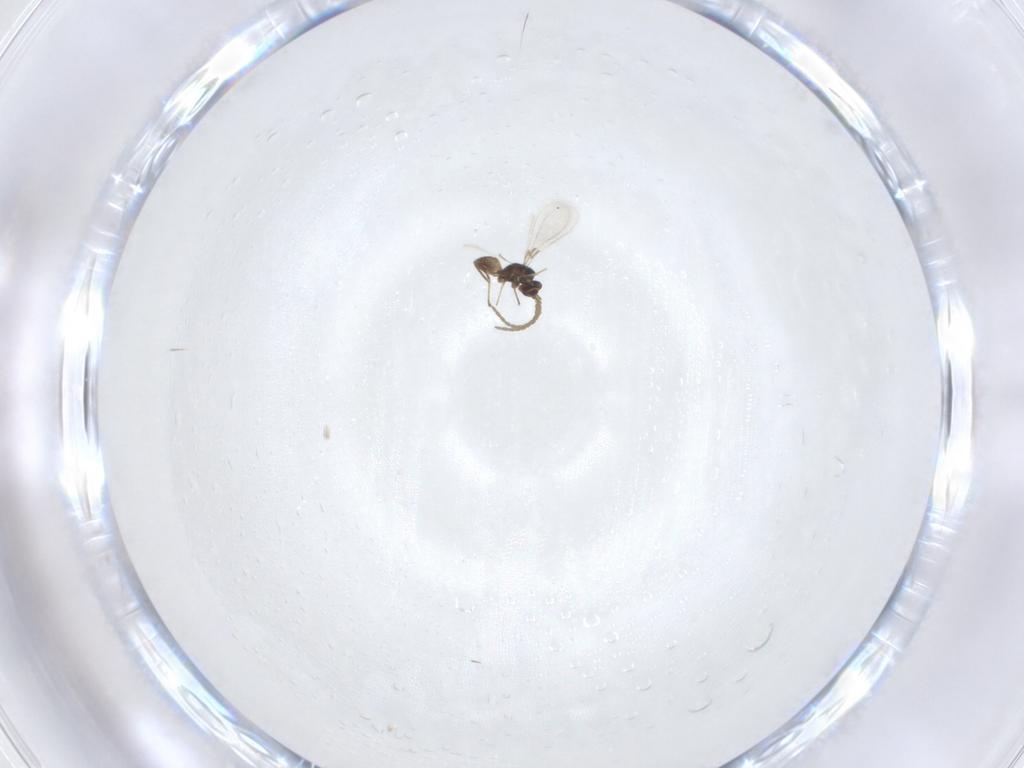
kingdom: Animalia
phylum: Arthropoda
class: Insecta
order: Hymenoptera
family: Mymaridae
